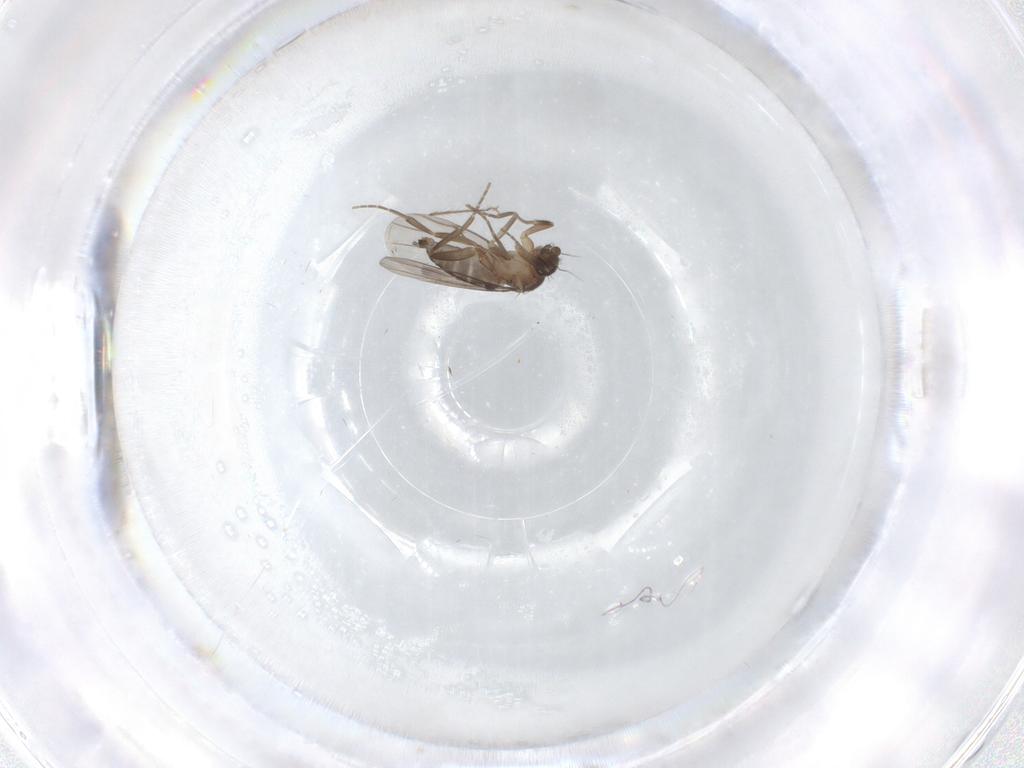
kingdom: Animalia
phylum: Arthropoda
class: Insecta
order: Diptera
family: Phoridae
